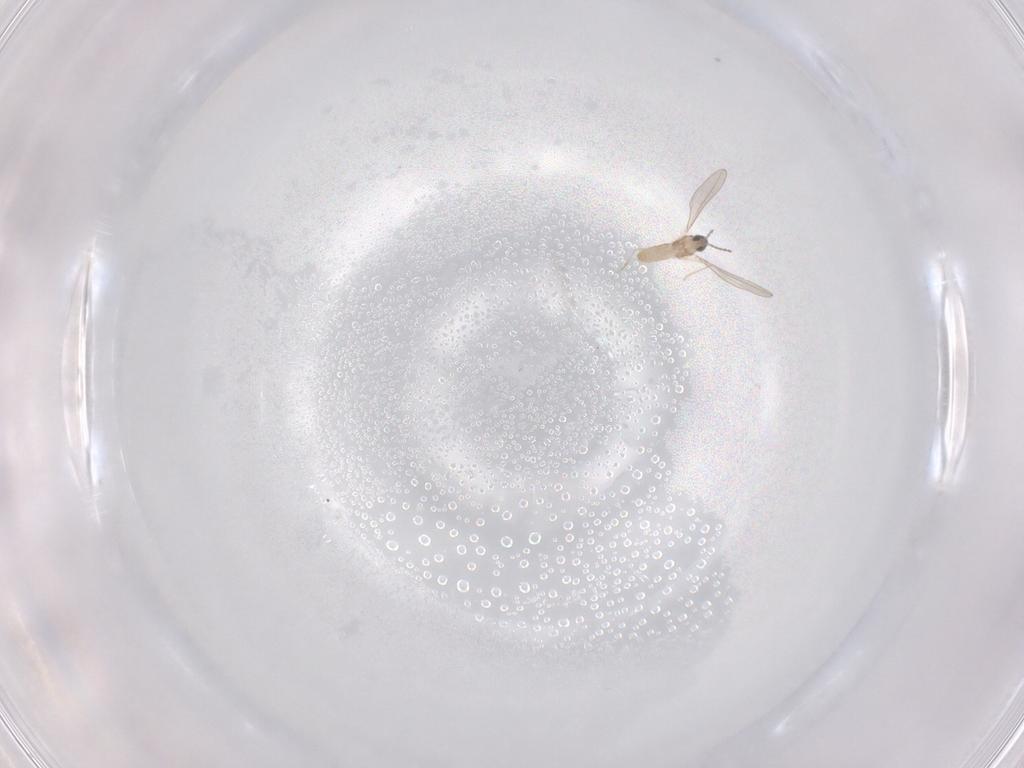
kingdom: Animalia
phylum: Arthropoda
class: Insecta
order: Diptera
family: Cecidomyiidae
